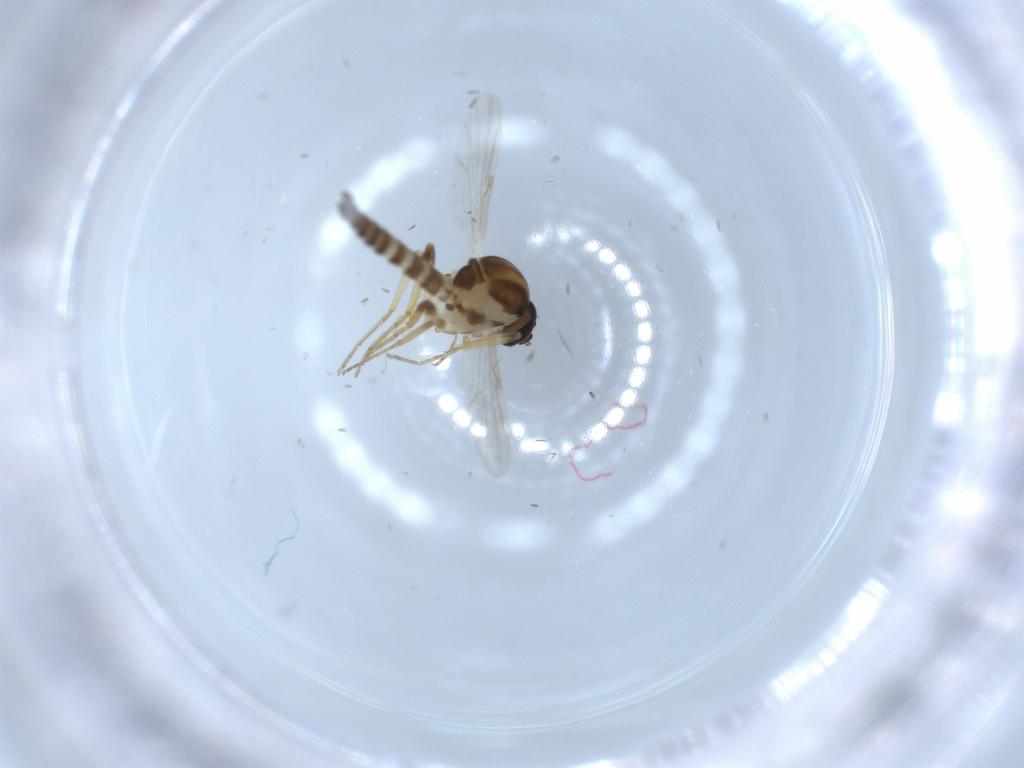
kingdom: Animalia
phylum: Arthropoda
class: Insecta
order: Diptera
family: Ceratopogonidae
